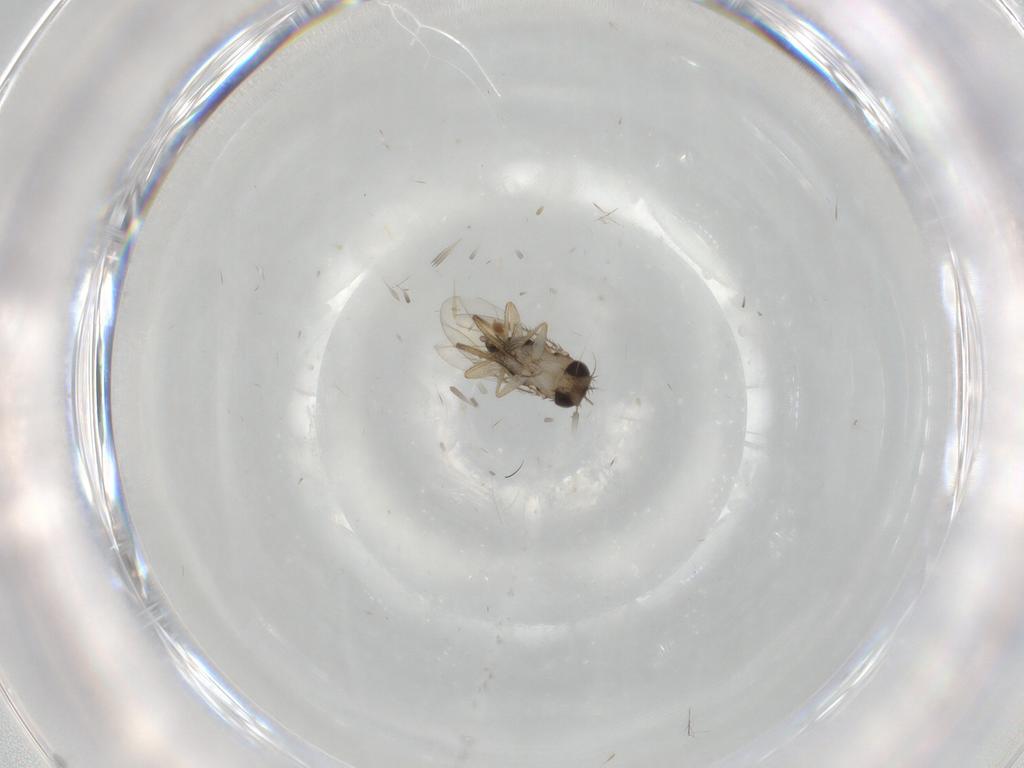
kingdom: Animalia
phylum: Arthropoda
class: Insecta
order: Diptera
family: Phoridae
